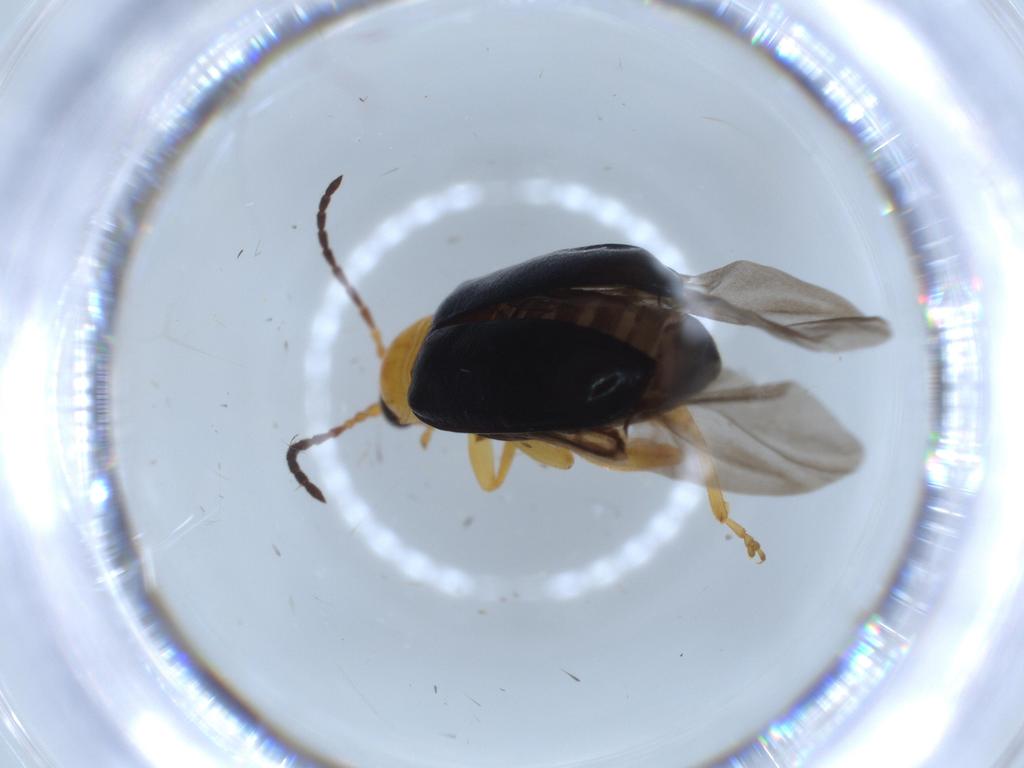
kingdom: Animalia
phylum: Arthropoda
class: Insecta
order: Coleoptera
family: Chrysomelidae
